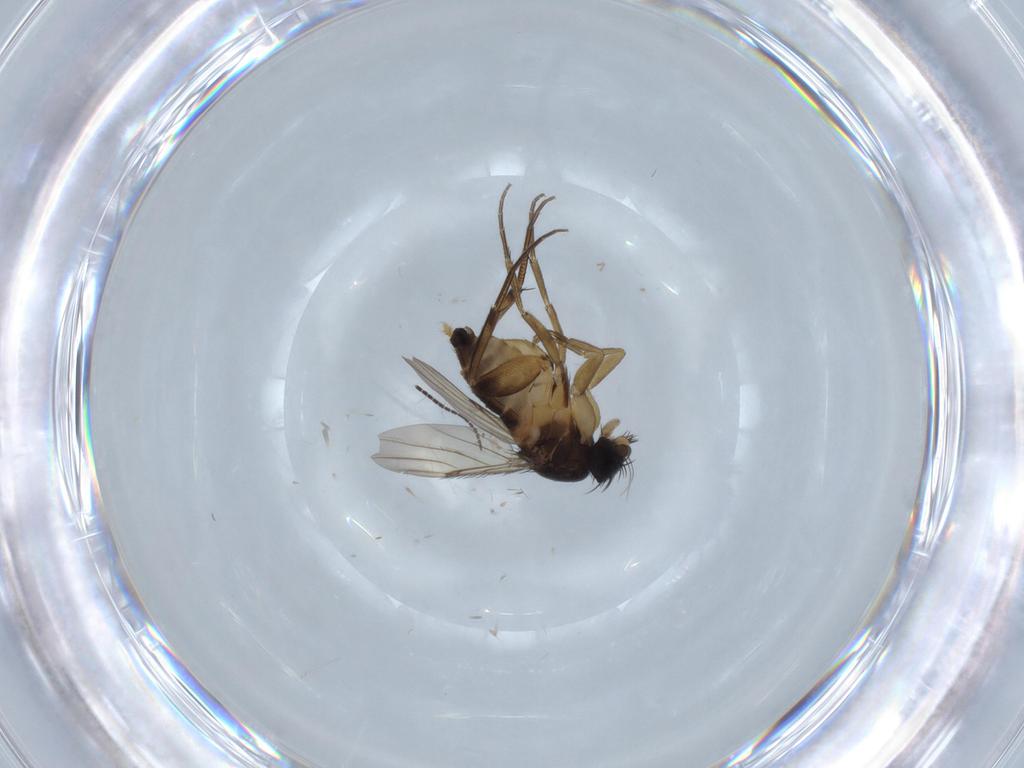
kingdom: Animalia
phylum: Arthropoda
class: Insecta
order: Diptera
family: Phoridae
